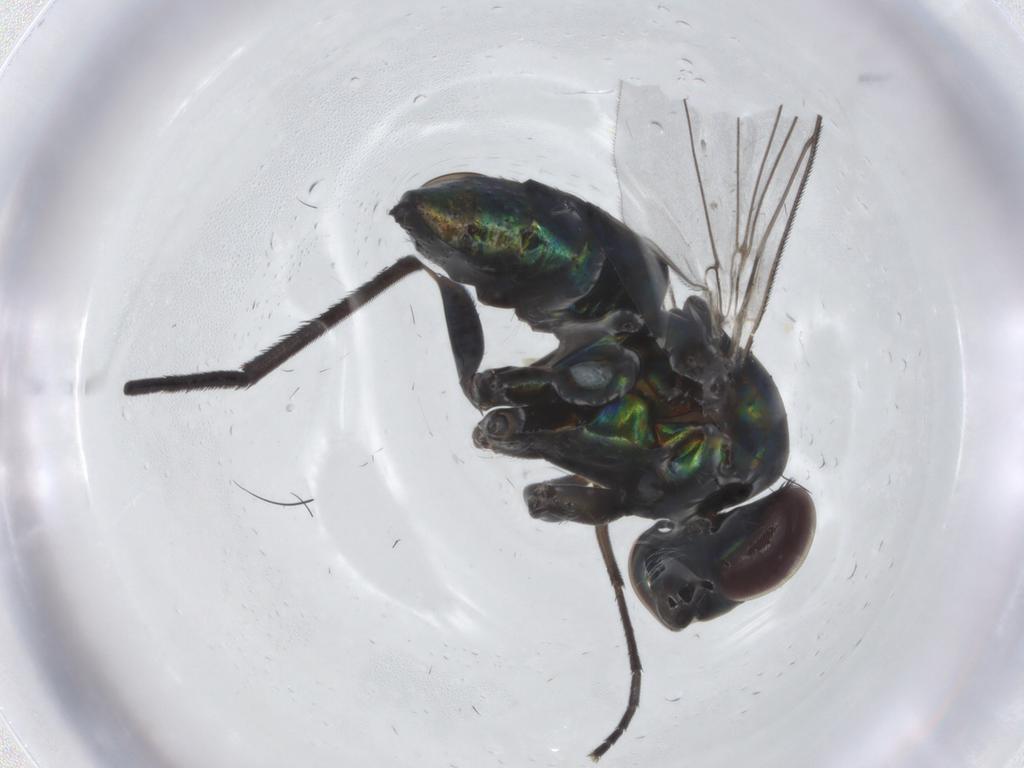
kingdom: Animalia
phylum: Arthropoda
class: Insecta
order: Diptera
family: Dolichopodidae
